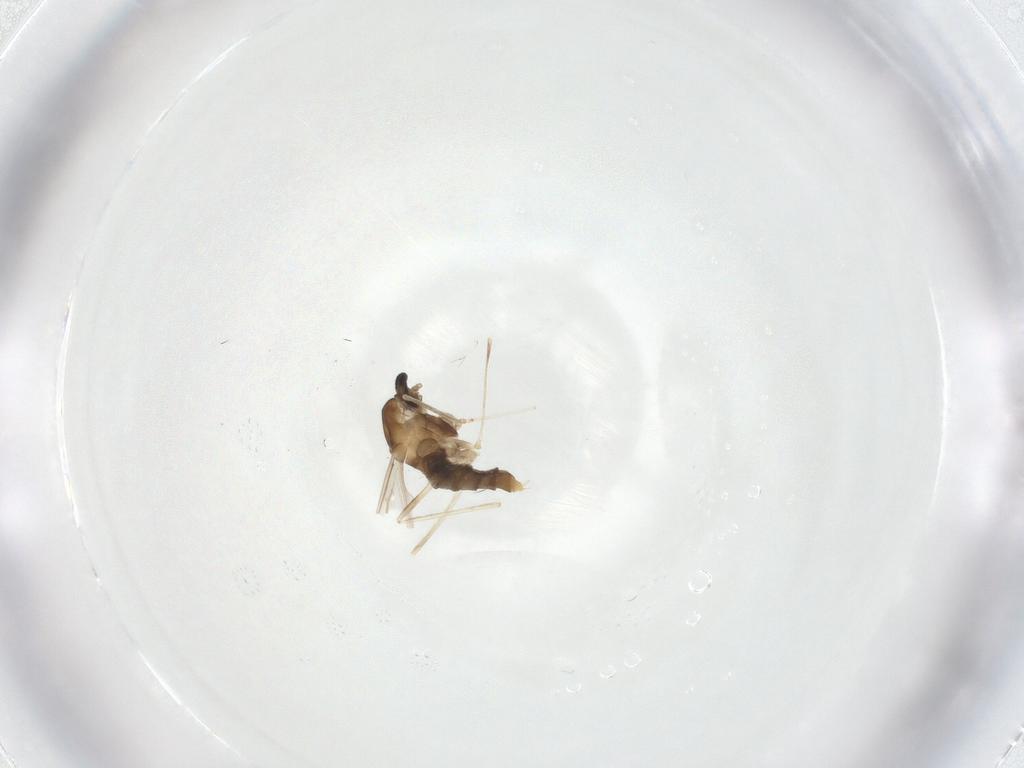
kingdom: Animalia
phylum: Arthropoda
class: Insecta
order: Diptera
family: Cecidomyiidae
